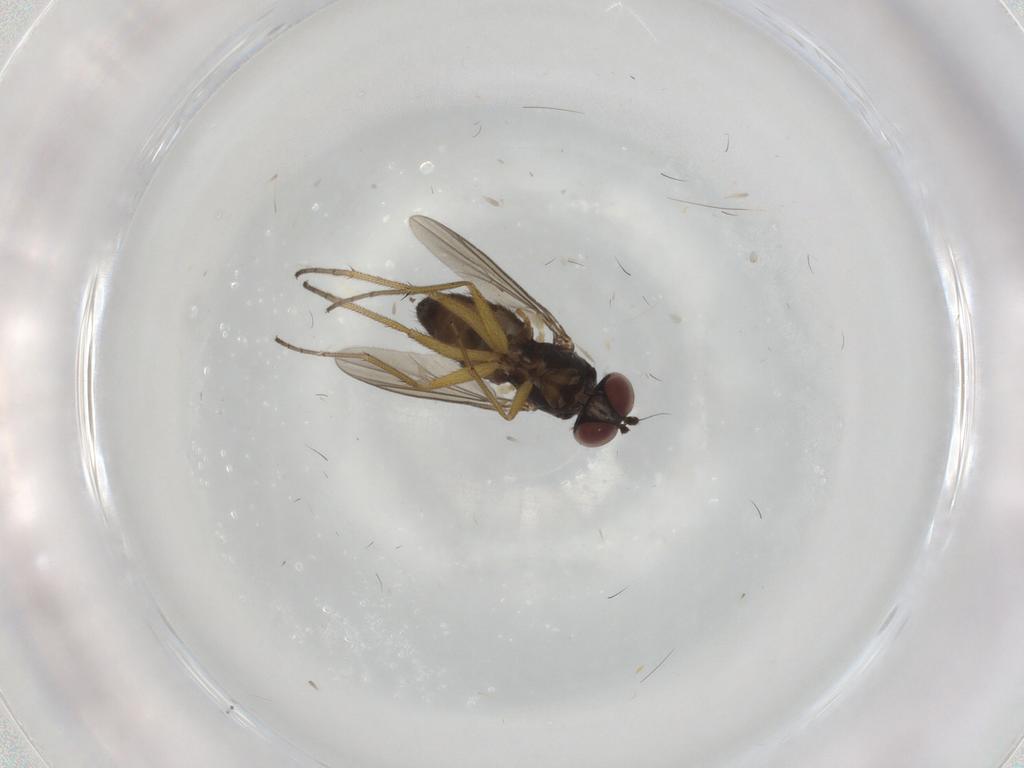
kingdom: Animalia
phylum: Arthropoda
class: Insecta
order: Diptera
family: Dolichopodidae
